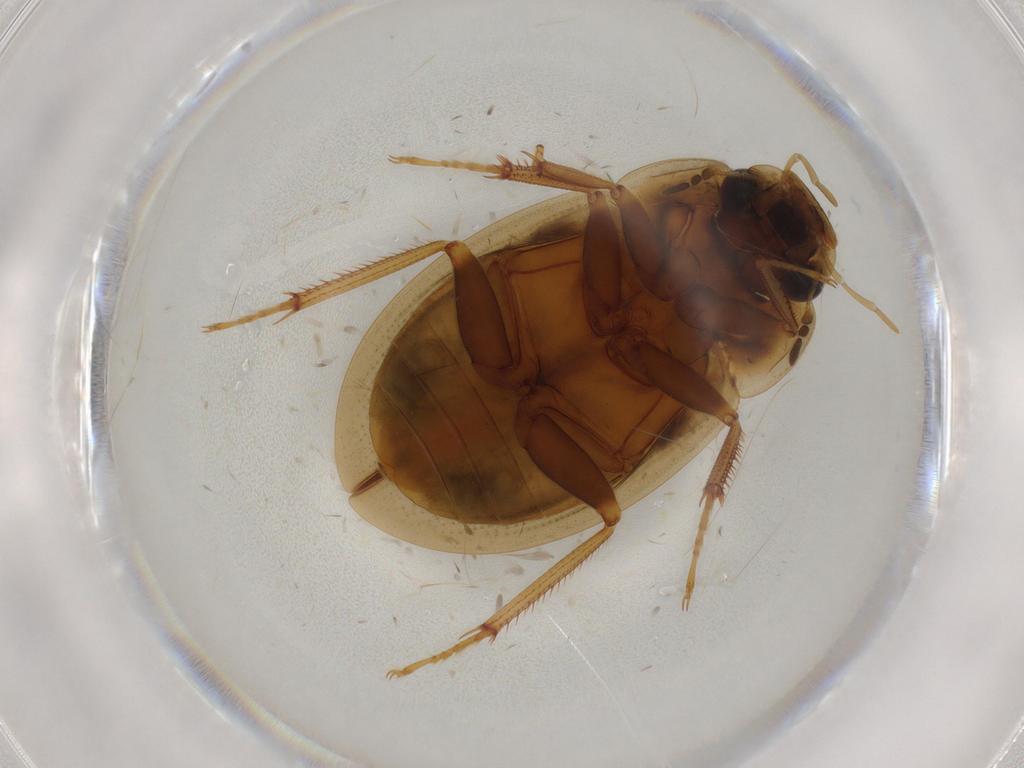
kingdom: Animalia
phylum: Arthropoda
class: Insecta
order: Coleoptera
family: Hydrophilidae
